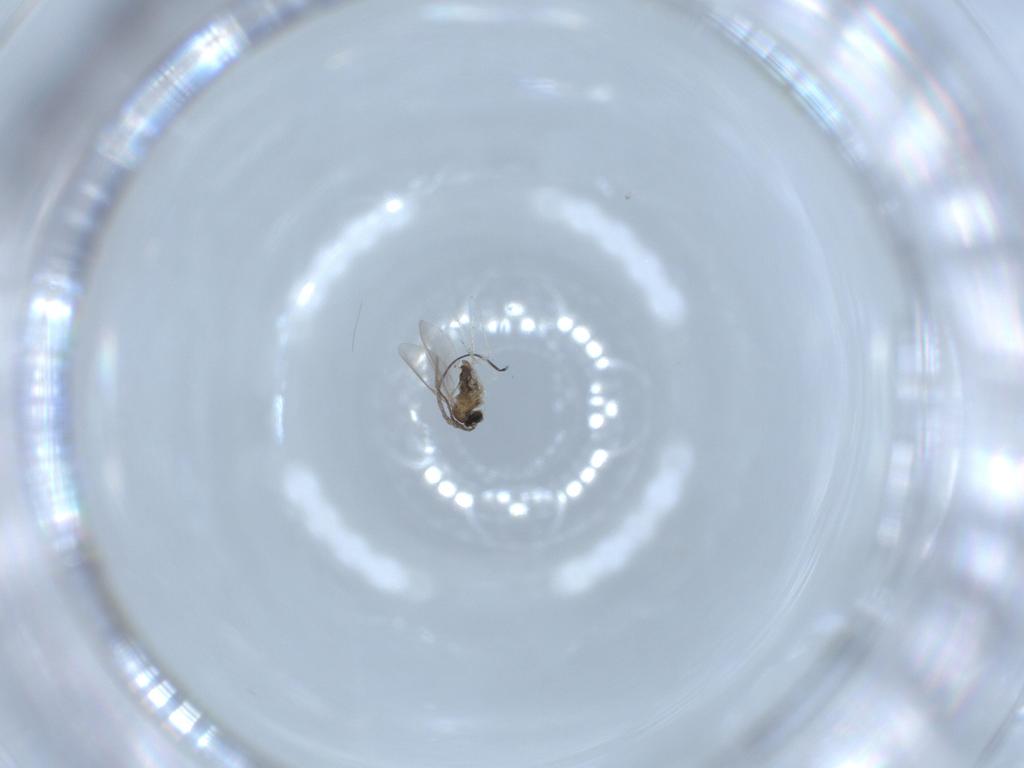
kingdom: Animalia
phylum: Arthropoda
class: Insecta
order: Diptera
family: Cecidomyiidae
